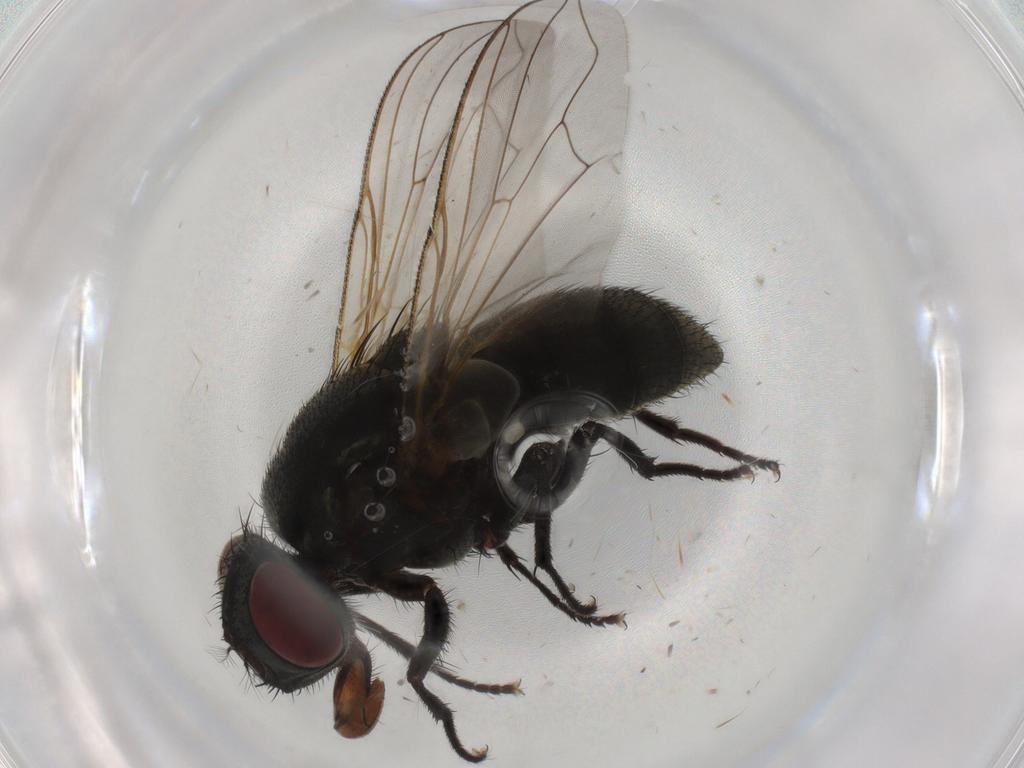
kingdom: Animalia
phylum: Arthropoda
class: Insecta
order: Diptera
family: Muscidae
